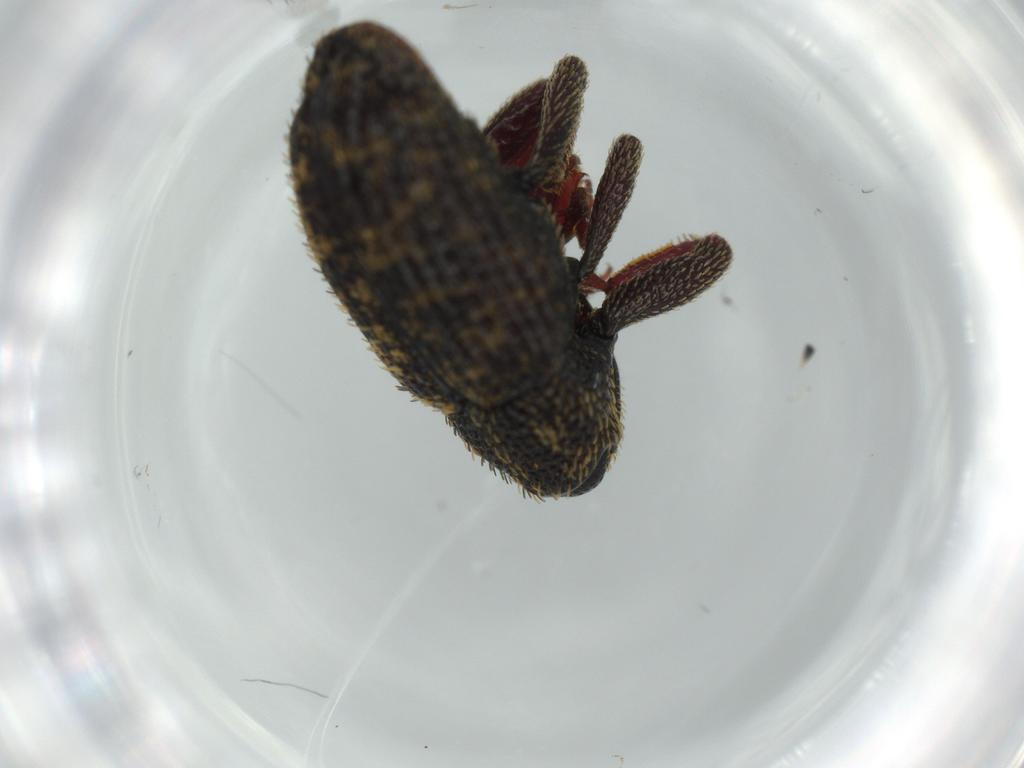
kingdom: Animalia
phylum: Arthropoda
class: Insecta
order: Coleoptera
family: Curculionidae
